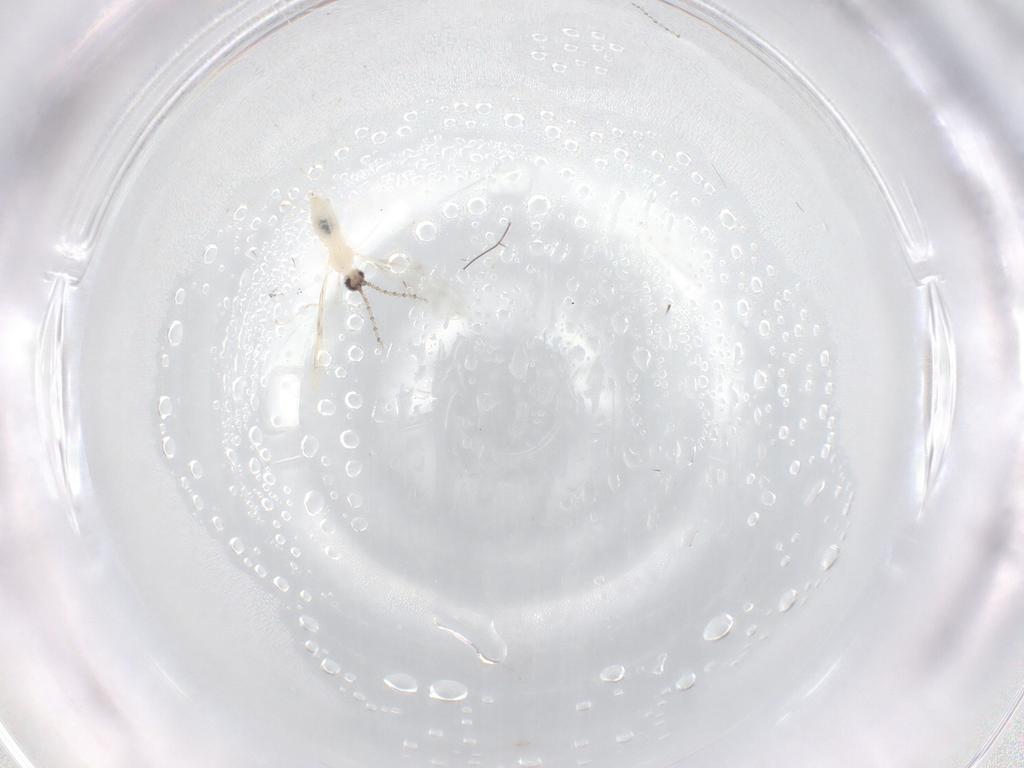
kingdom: Animalia
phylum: Arthropoda
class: Insecta
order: Diptera
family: Cecidomyiidae
